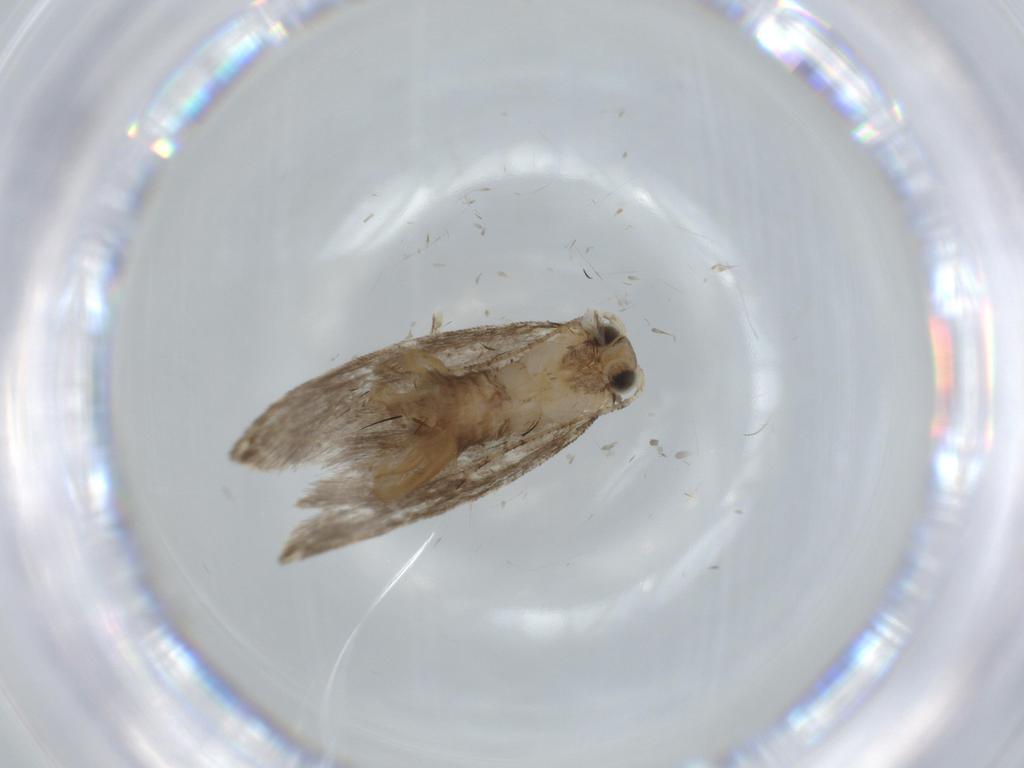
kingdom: Animalia
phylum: Arthropoda
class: Insecta
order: Lepidoptera
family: Tineidae
